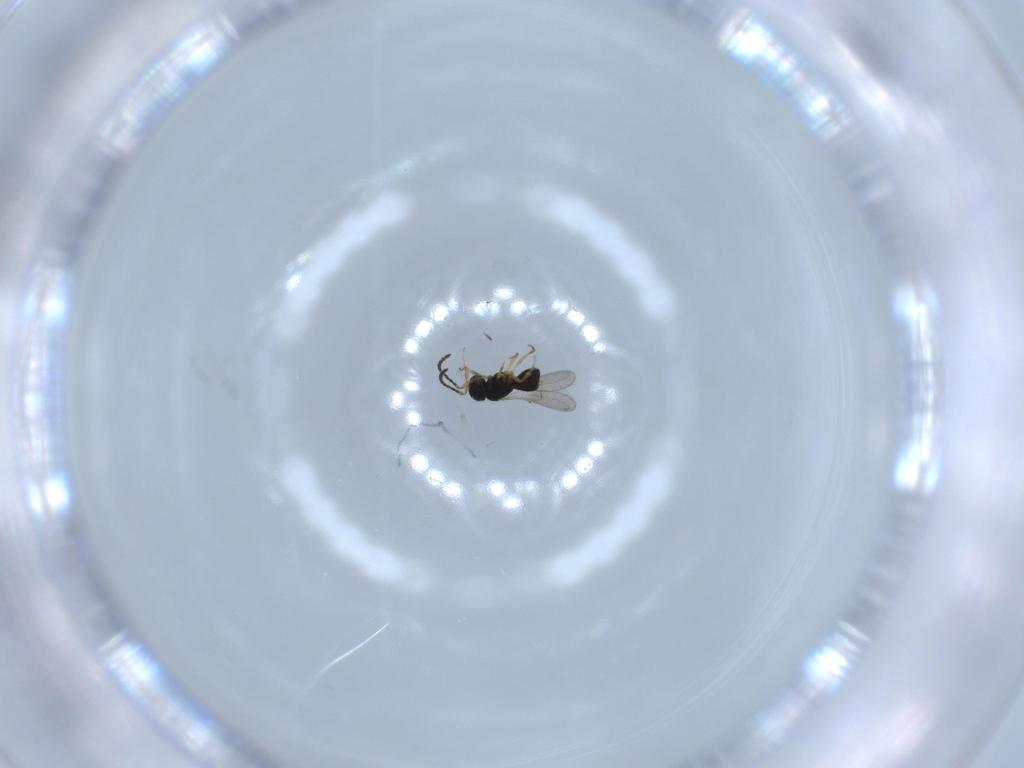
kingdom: Animalia
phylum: Arthropoda
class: Insecta
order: Hymenoptera
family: Scelionidae
